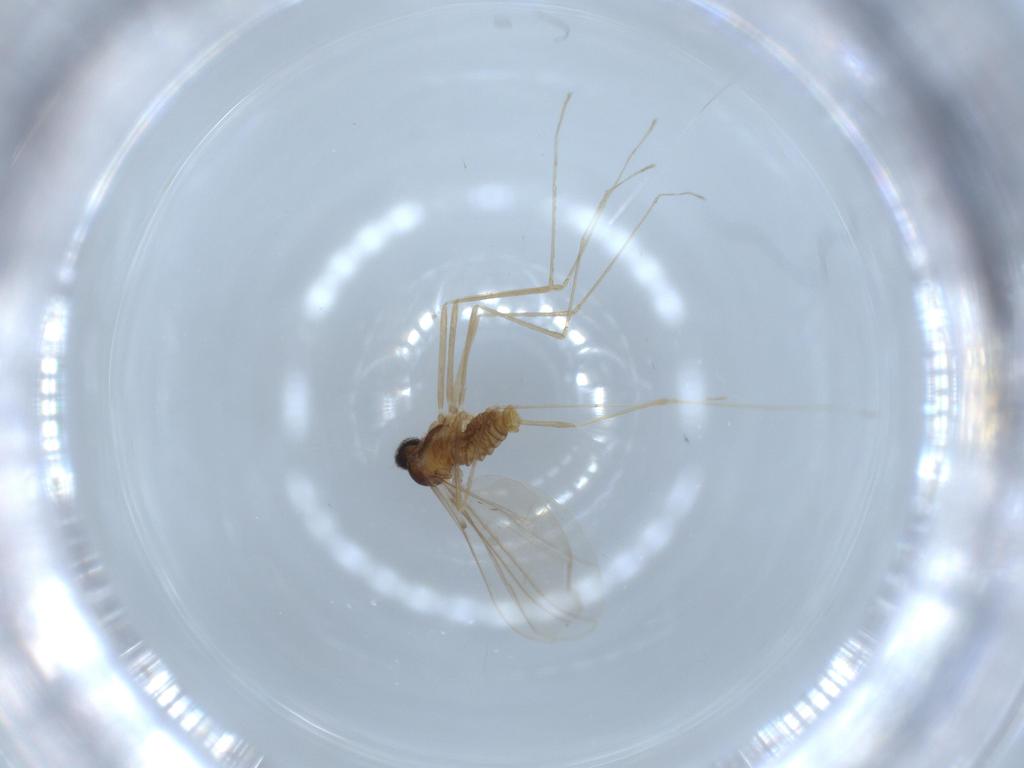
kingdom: Animalia
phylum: Arthropoda
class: Insecta
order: Diptera
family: Cecidomyiidae
